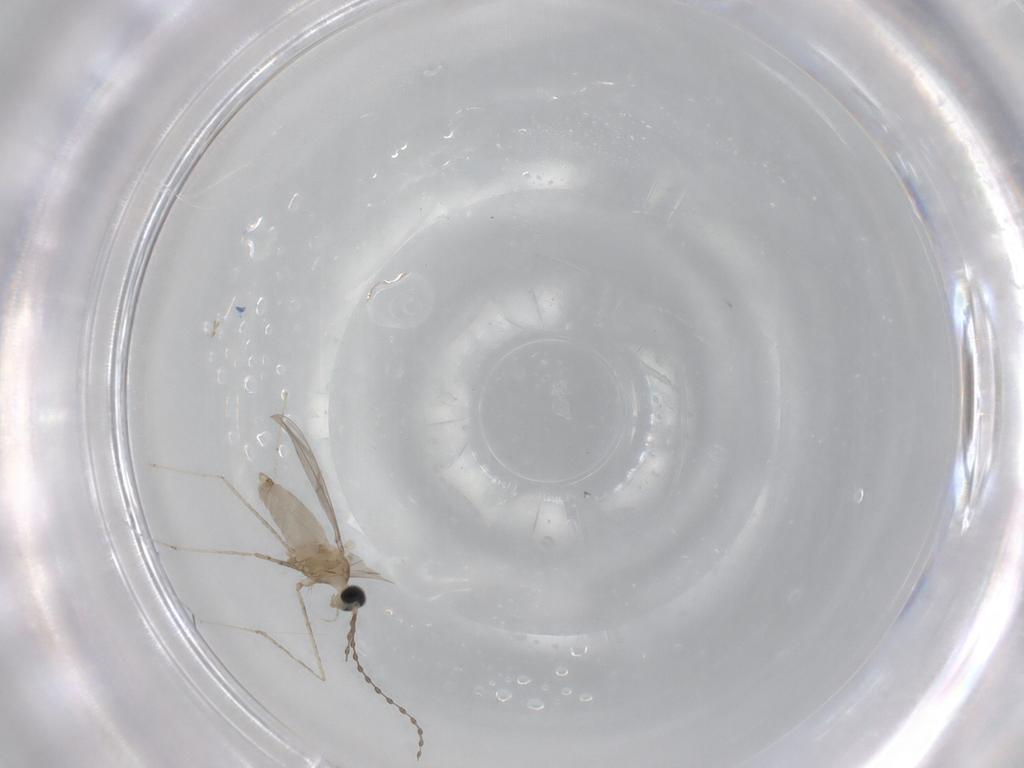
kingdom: Animalia
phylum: Arthropoda
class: Insecta
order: Diptera
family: Cecidomyiidae
